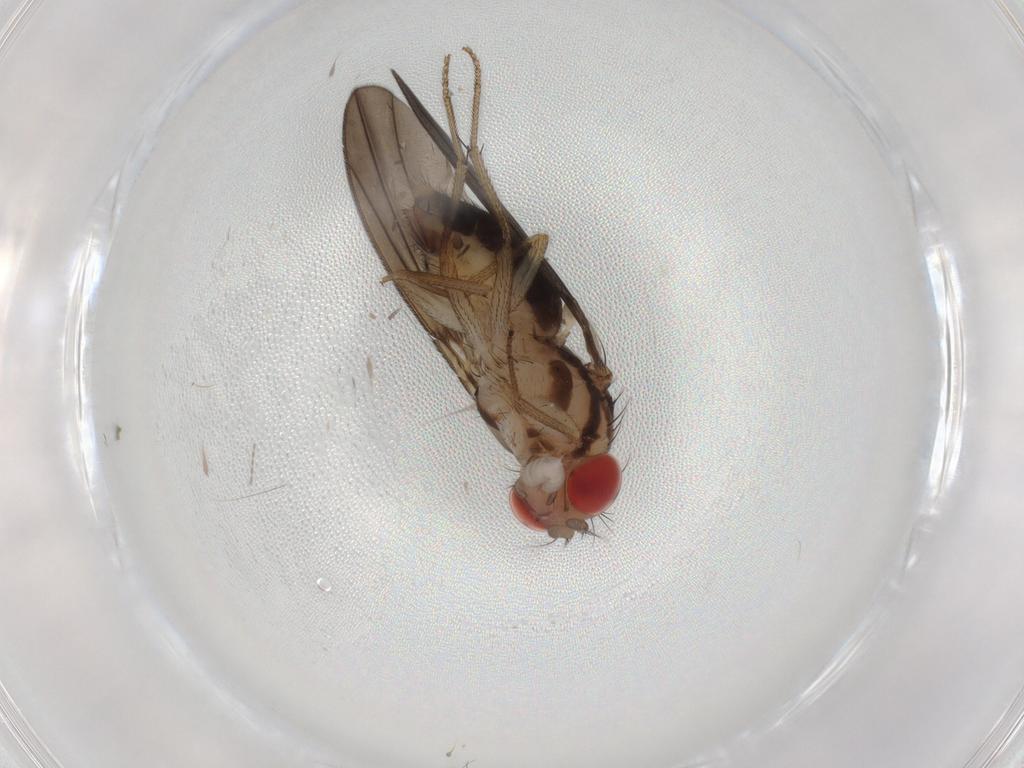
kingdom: Animalia
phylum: Arthropoda
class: Insecta
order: Diptera
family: Drosophilidae
